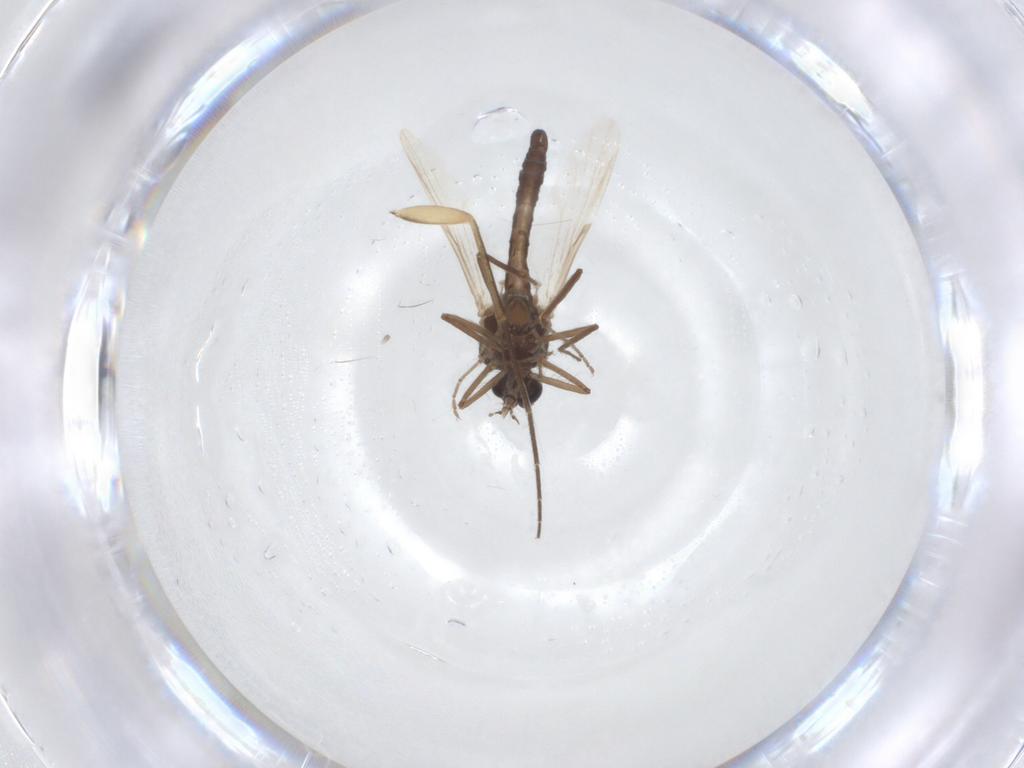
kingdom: Animalia
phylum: Arthropoda
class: Insecta
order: Diptera
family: Ceratopogonidae
